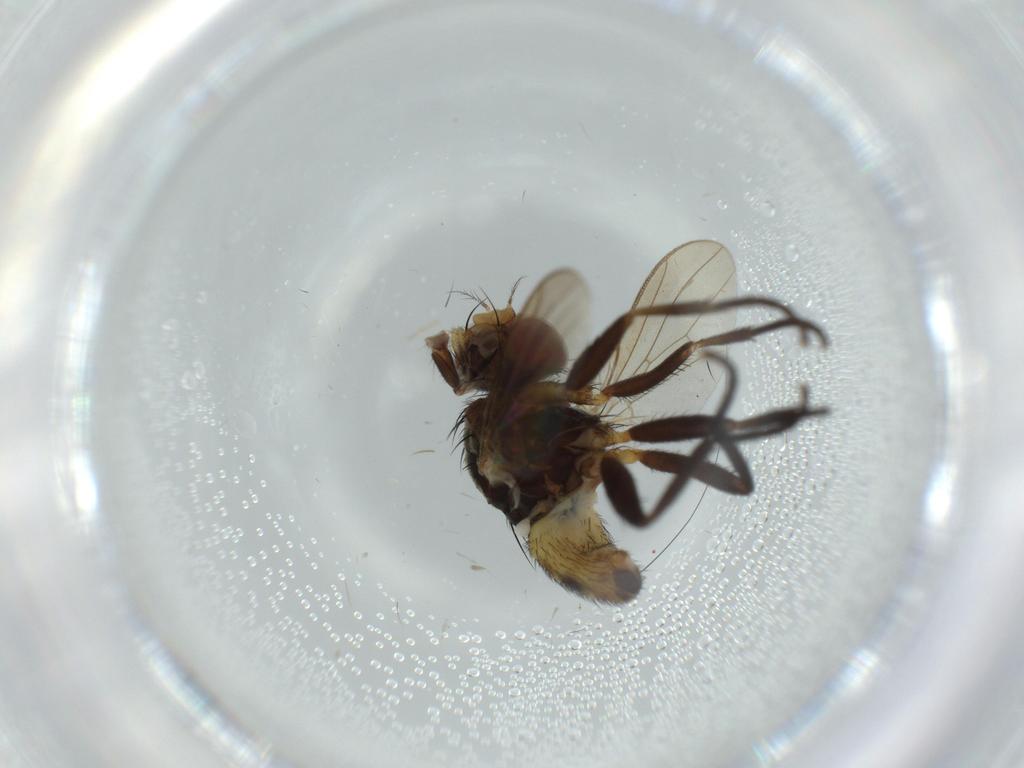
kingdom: Animalia
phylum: Arthropoda
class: Insecta
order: Diptera
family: Anthomyiidae
